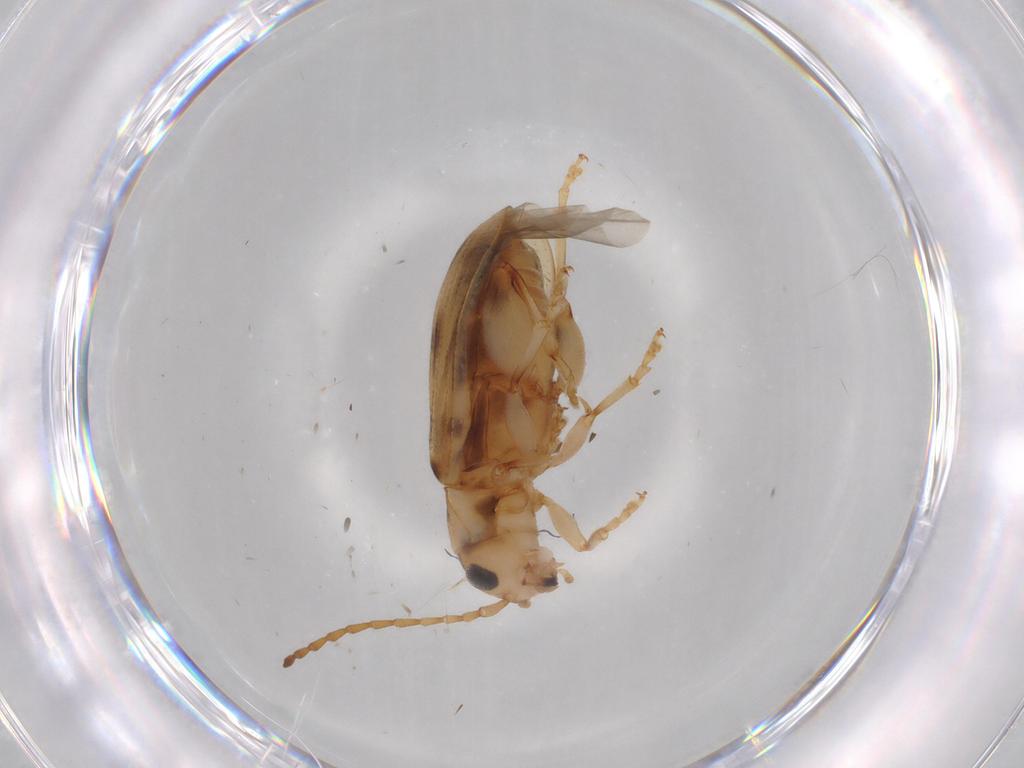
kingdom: Animalia
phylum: Arthropoda
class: Insecta
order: Coleoptera
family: Chrysomelidae
